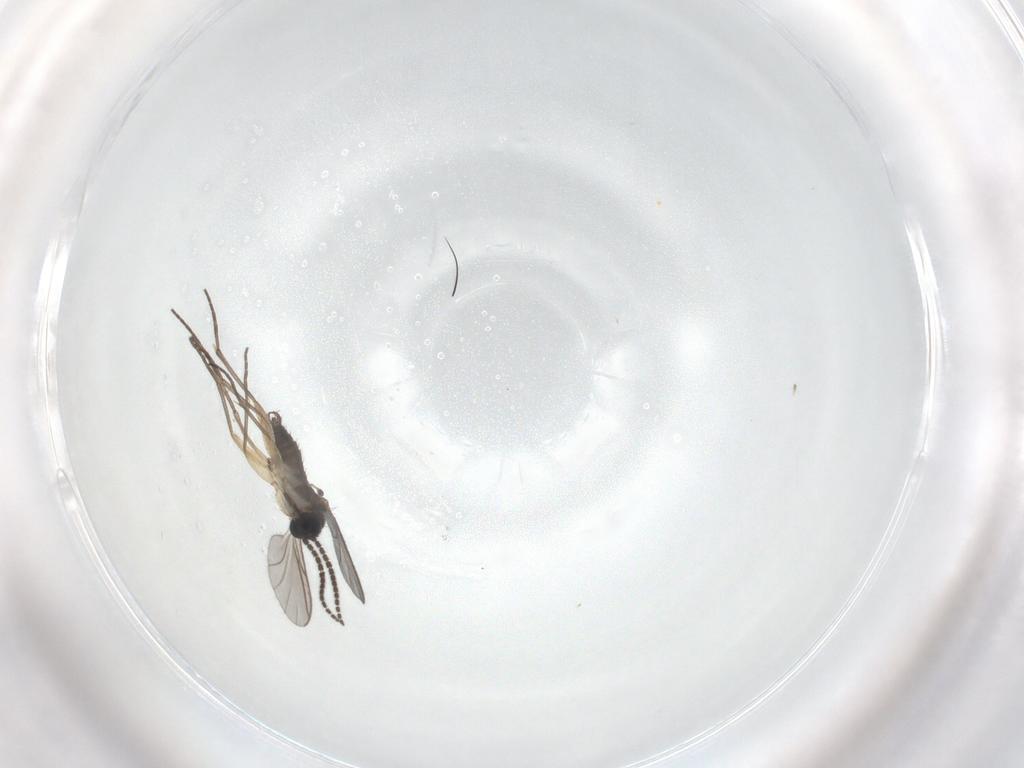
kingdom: Animalia
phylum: Arthropoda
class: Insecta
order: Diptera
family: Sciaridae
